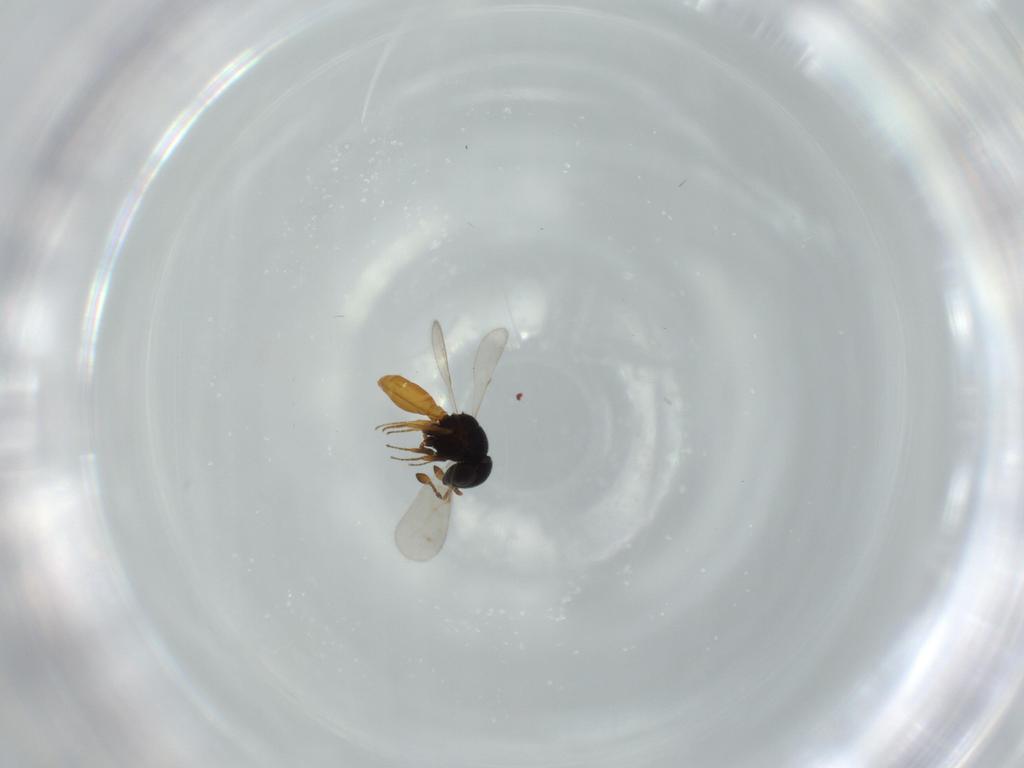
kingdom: Animalia
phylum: Arthropoda
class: Insecta
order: Hymenoptera
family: Scelionidae
